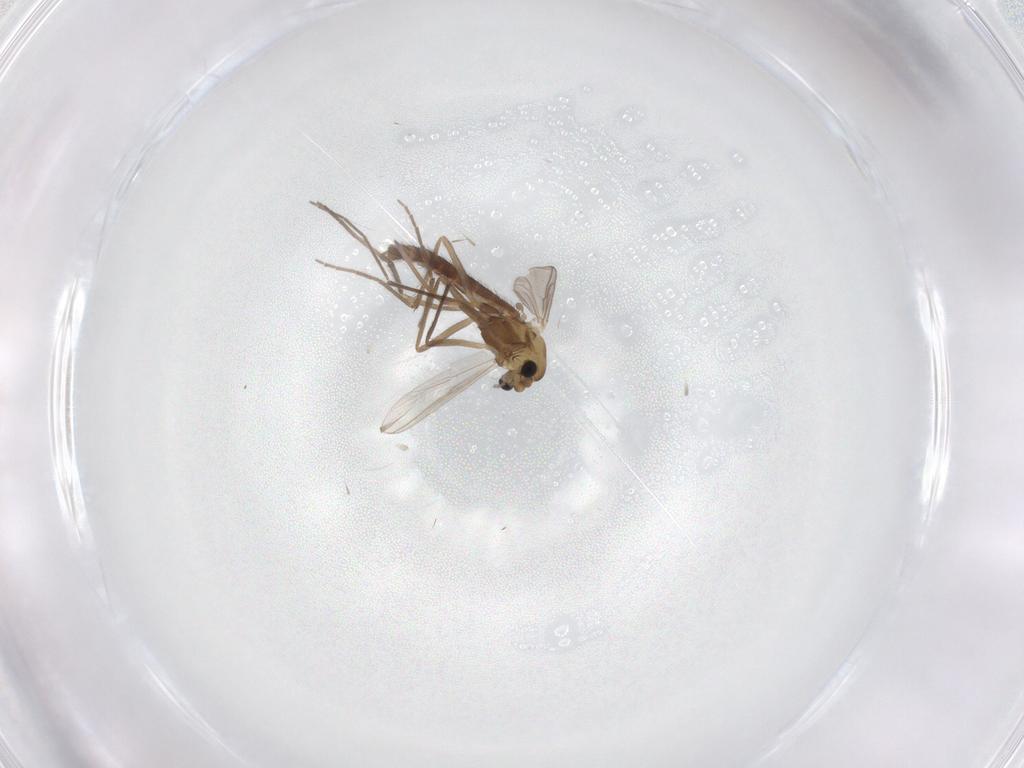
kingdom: Animalia
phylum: Arthropoda
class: Insecta
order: Diptera
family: Chironomidae
